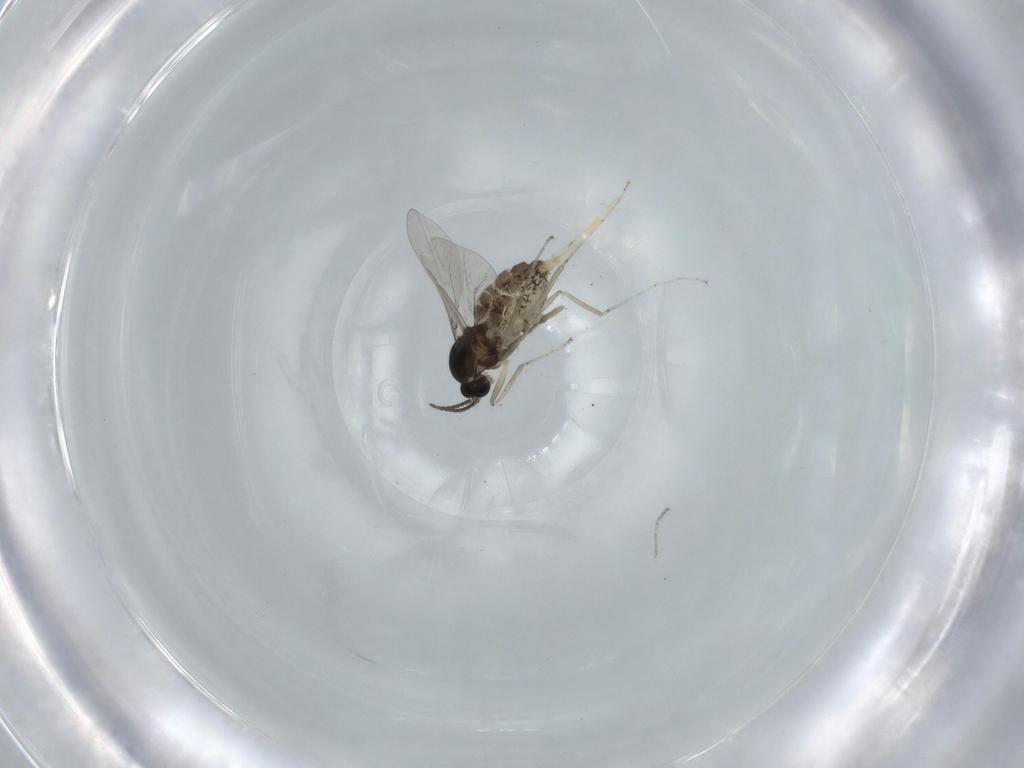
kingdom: Animalia
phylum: Arthropoda
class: Insecta
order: Diptera
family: Cecidomyiidae
